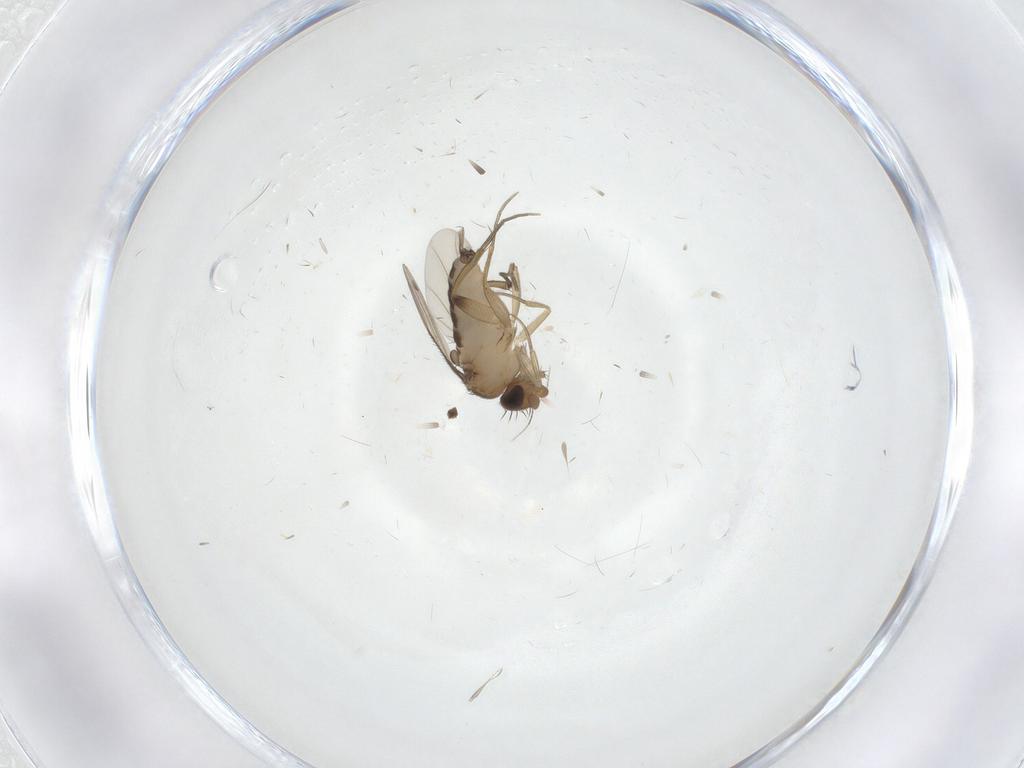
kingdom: Animalia
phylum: Arthropoda
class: Insecta
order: Diptera
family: Phoridae
